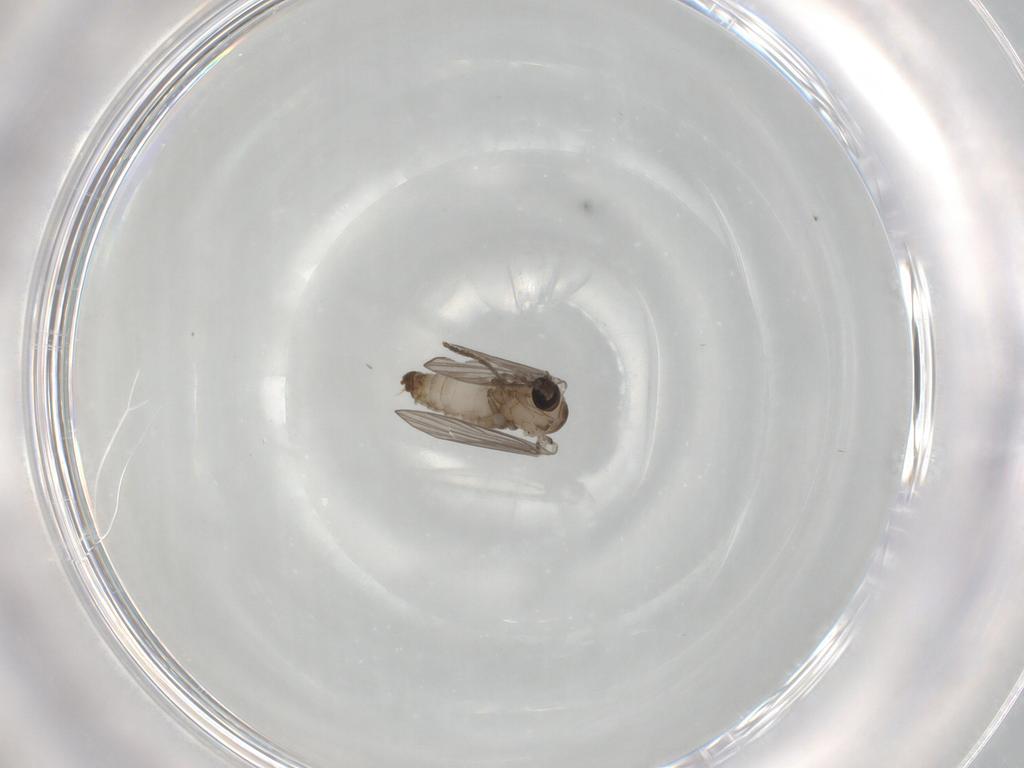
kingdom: Animalia
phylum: Arthropoda
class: Insecta
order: Diptera
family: Psychodidae
